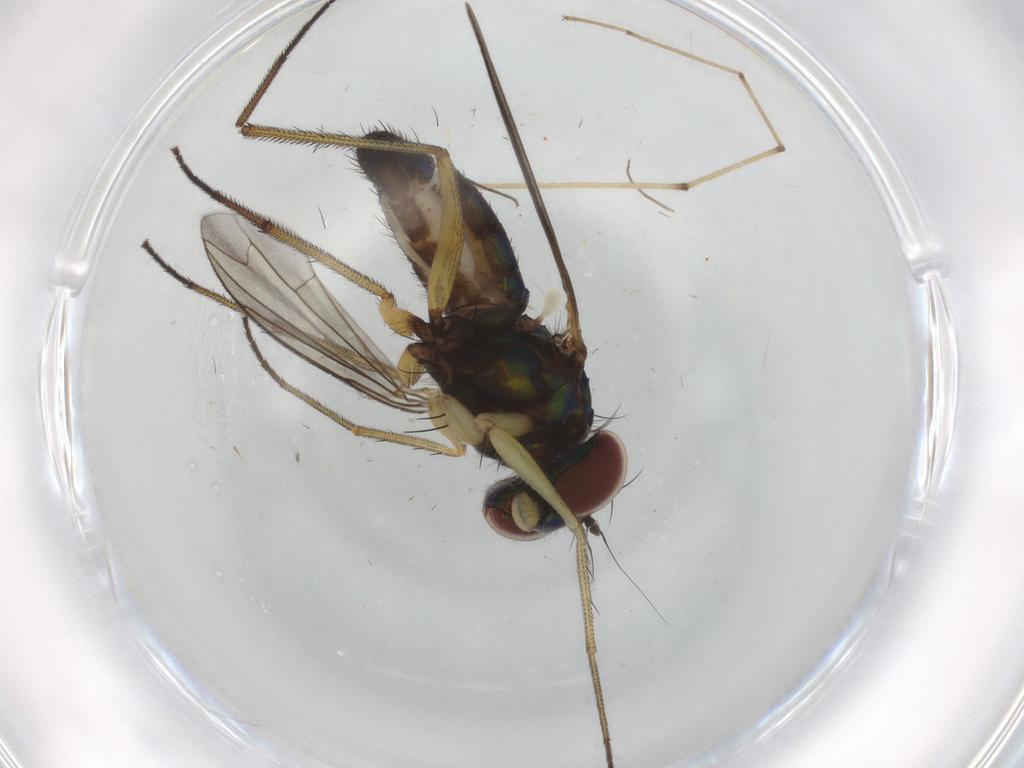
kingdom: Animalia
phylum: Arthropoda
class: Insecta
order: Diptera
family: Dolichopodidae
